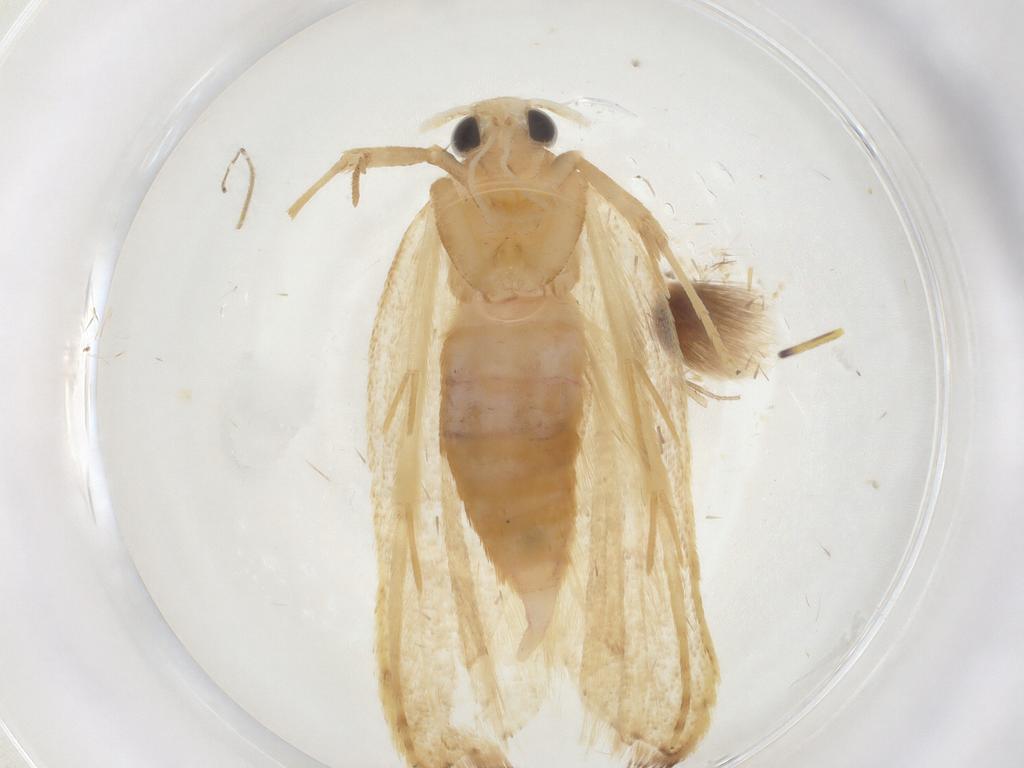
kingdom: Animalia
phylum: Arthropoda
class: Insecta
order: Lepidoptera
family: Lecithoceridae
